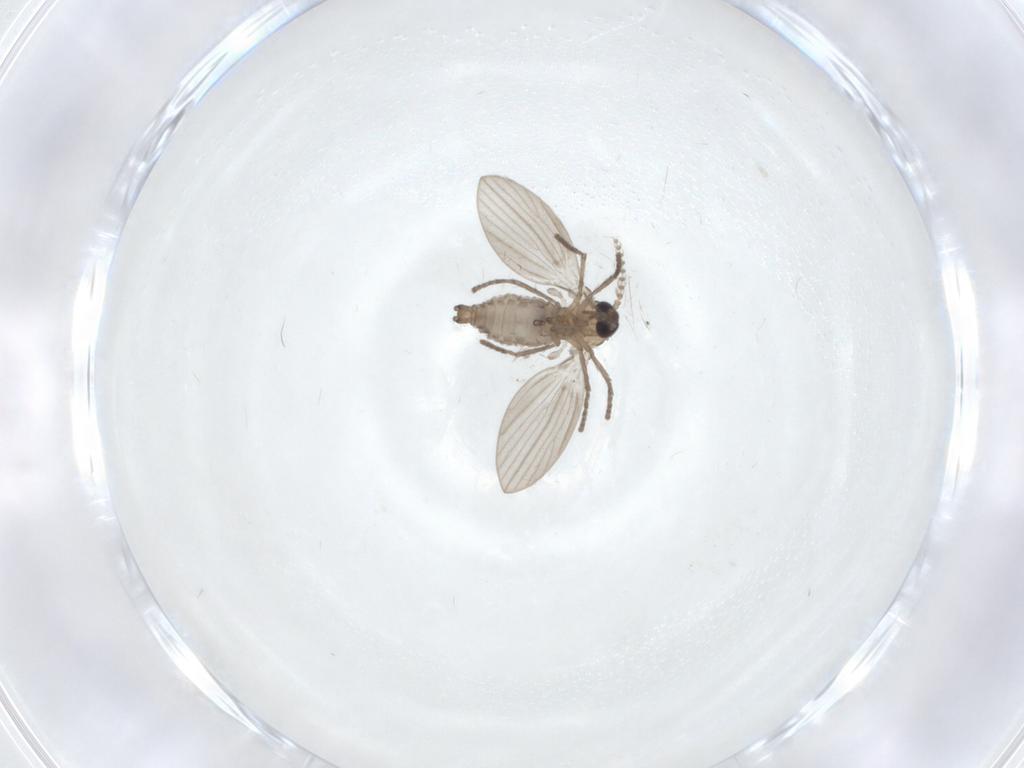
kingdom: Animalia
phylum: Arthropoda
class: Insecta
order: Diptera
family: Psychodidae
